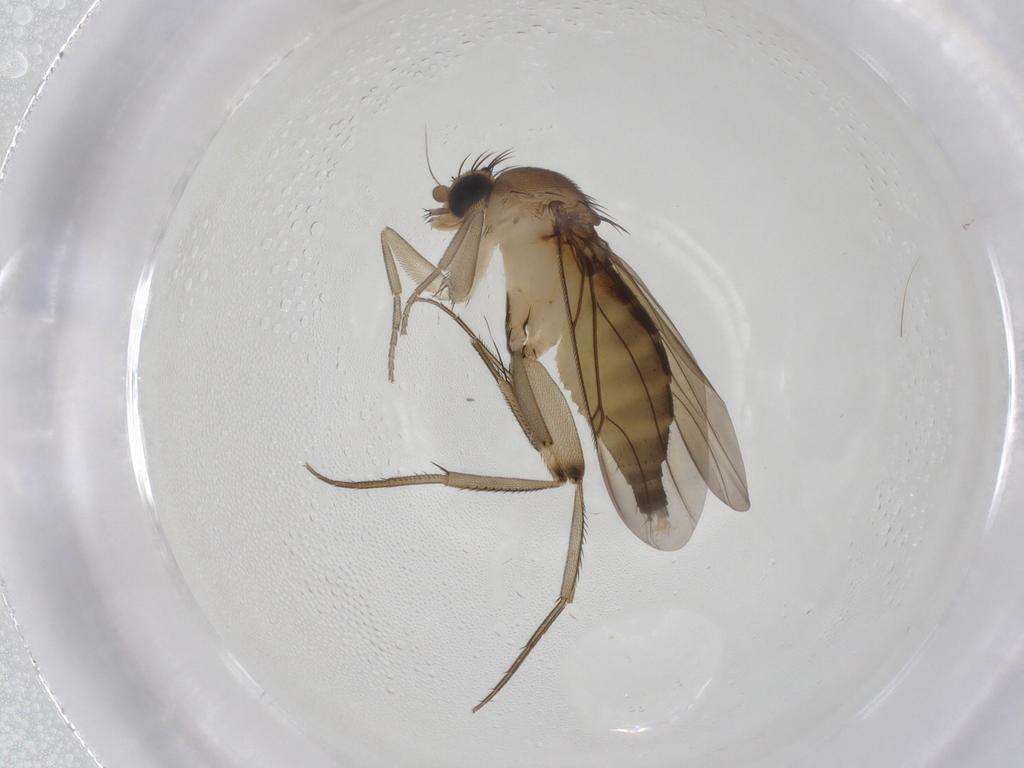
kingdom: Animalia
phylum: Arthropoda
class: Insecta
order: Diptera
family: Phoridae
